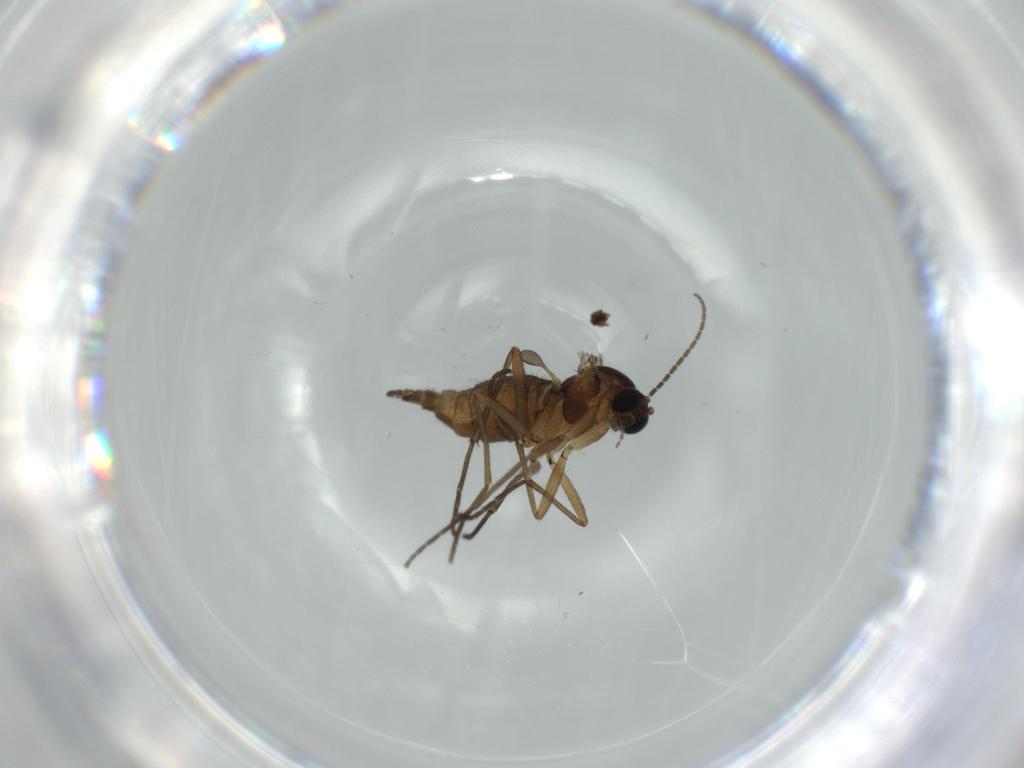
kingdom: Animalia
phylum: Arthropoda
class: Insecta
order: Diptera
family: Sciaridae
